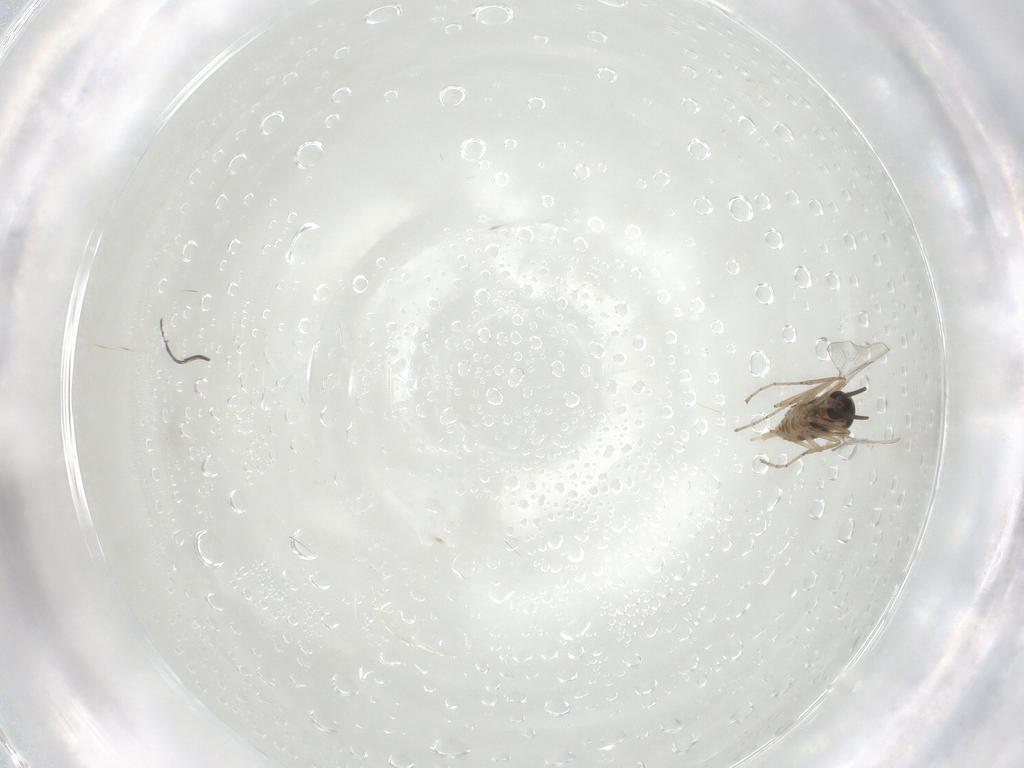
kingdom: Animalia
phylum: Arthropoda
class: Insecta
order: Diptera
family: Cecidomyiidae
